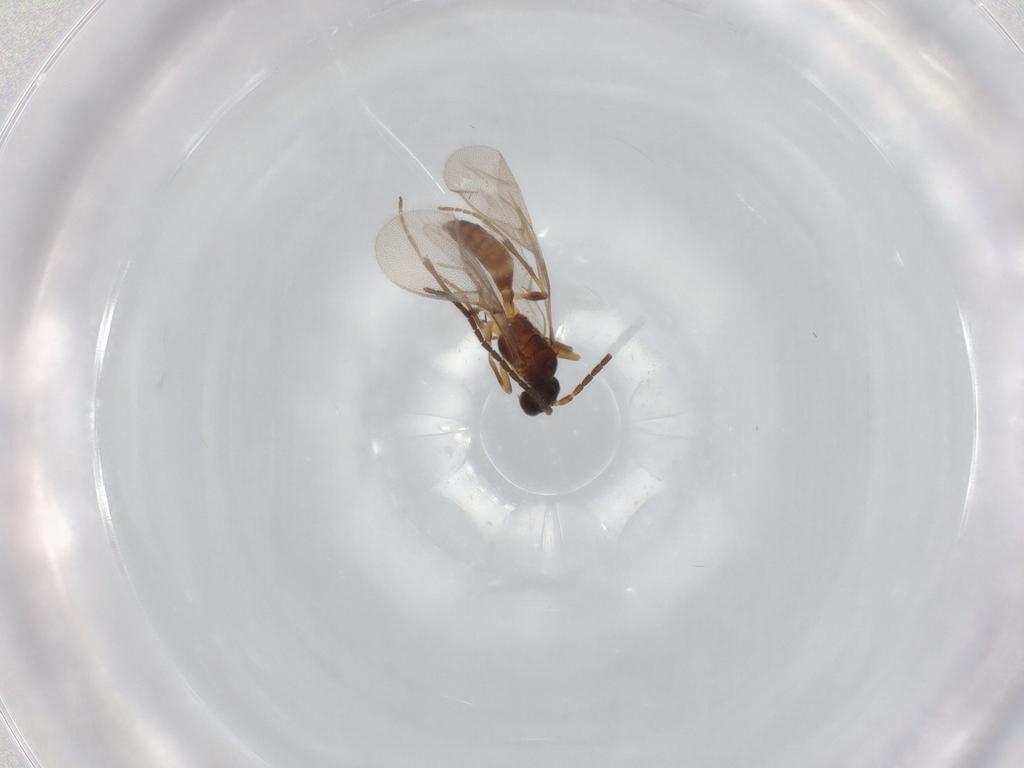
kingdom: Animalia
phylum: Arthropoda
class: Insecta
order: Hymenoptera
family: Braconidae
